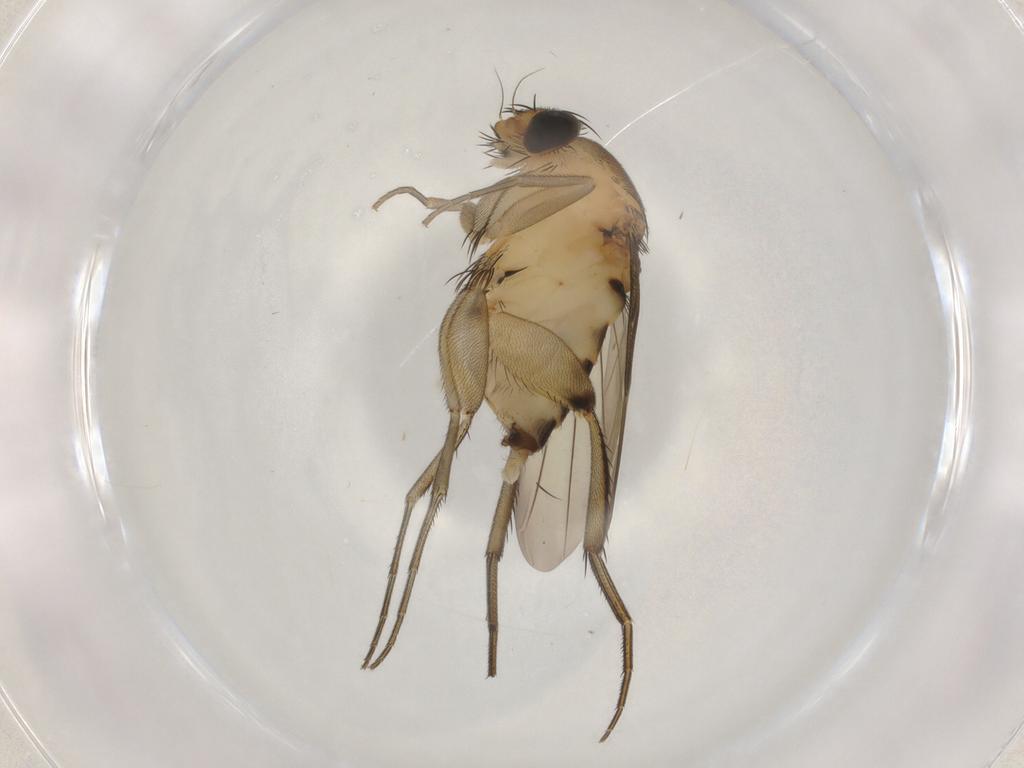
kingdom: Animalia
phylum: Arthropoda
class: Insecta
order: Diptera
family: Phoridae
